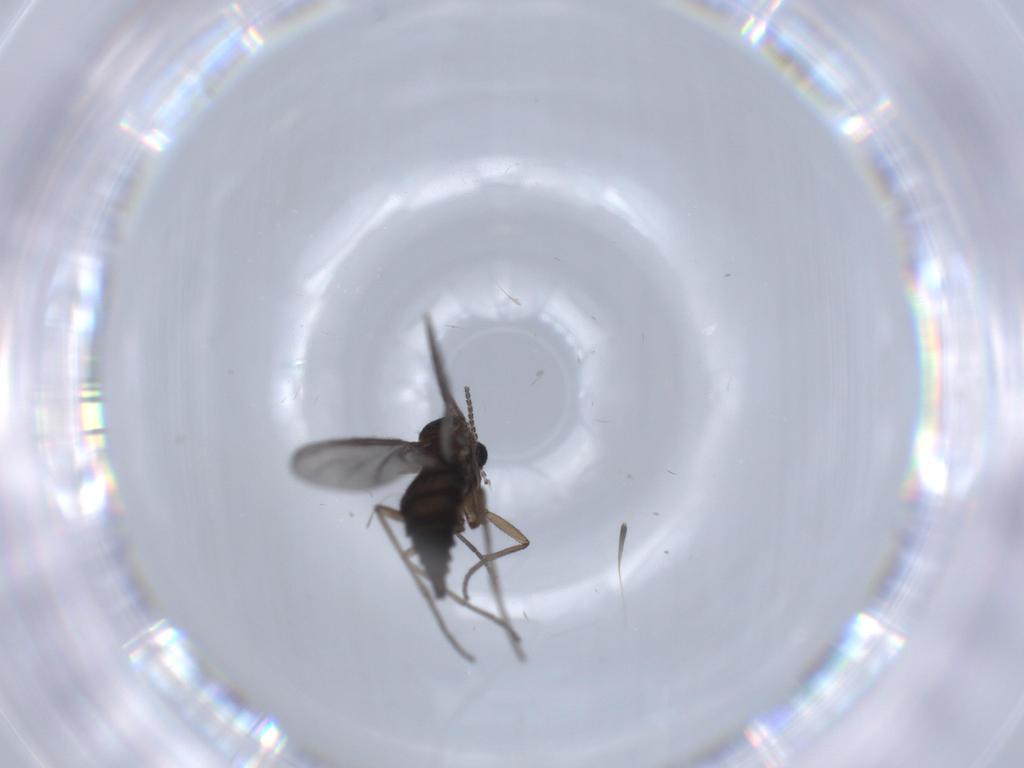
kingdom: Animalia
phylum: Arthropoda
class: Insecta
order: Diptera
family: Sciaridae
